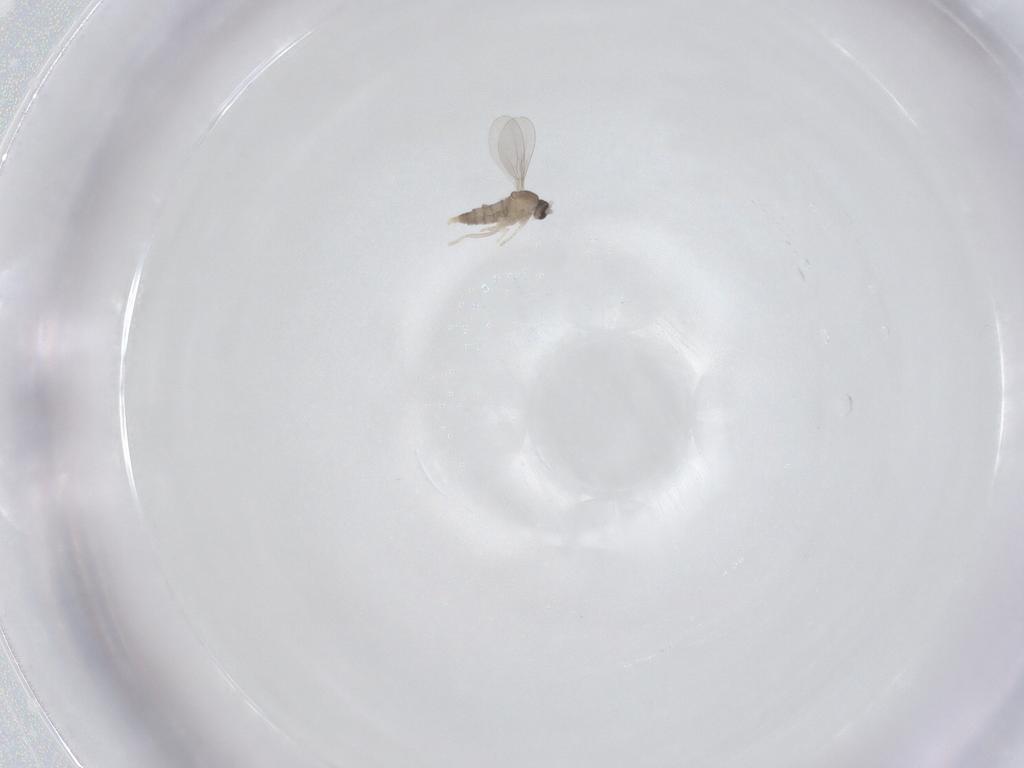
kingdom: Animalia
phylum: Arthropoda
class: Insecta
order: Diptera
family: Cecidomyiidae
